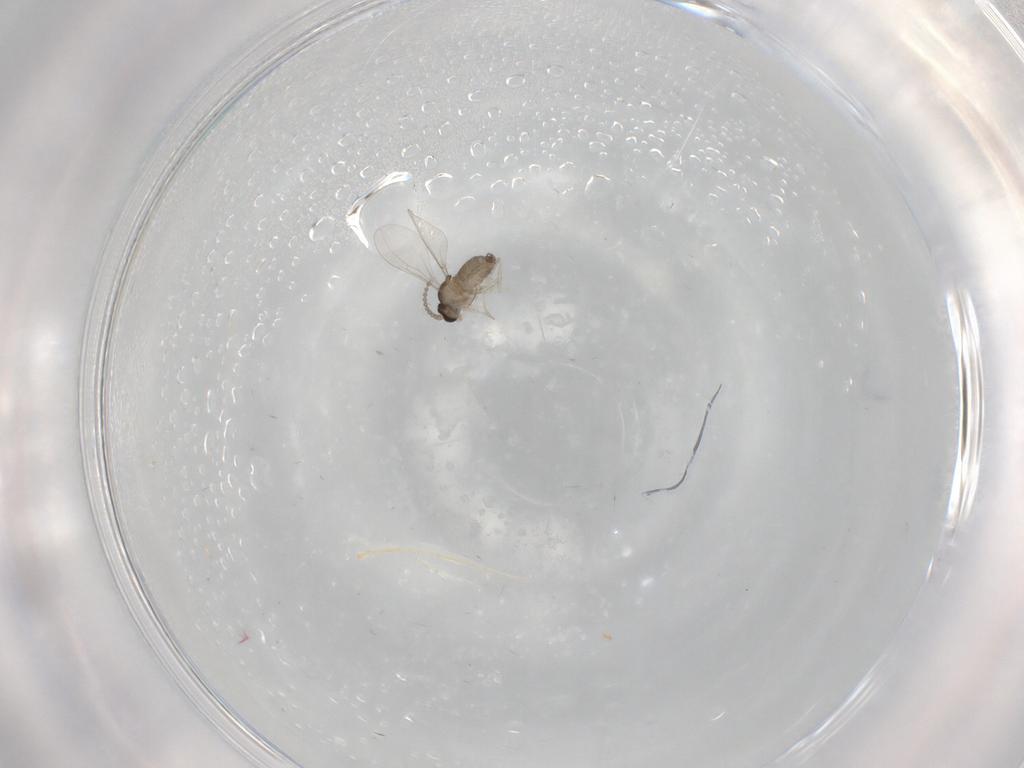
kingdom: Animalia
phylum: Arthropoda
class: Insecta
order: Diptera
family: Cecidomyiidae
